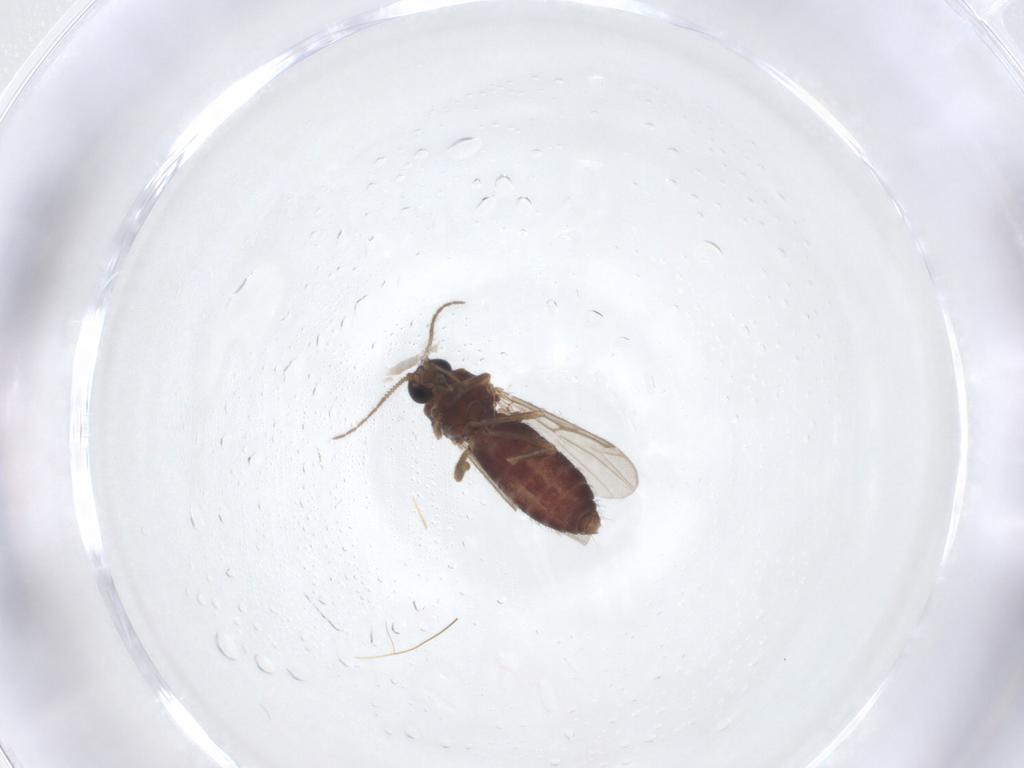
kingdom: Animalia
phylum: Arthropoda
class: Insecta
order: Diptera
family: Ceratopogonidae
